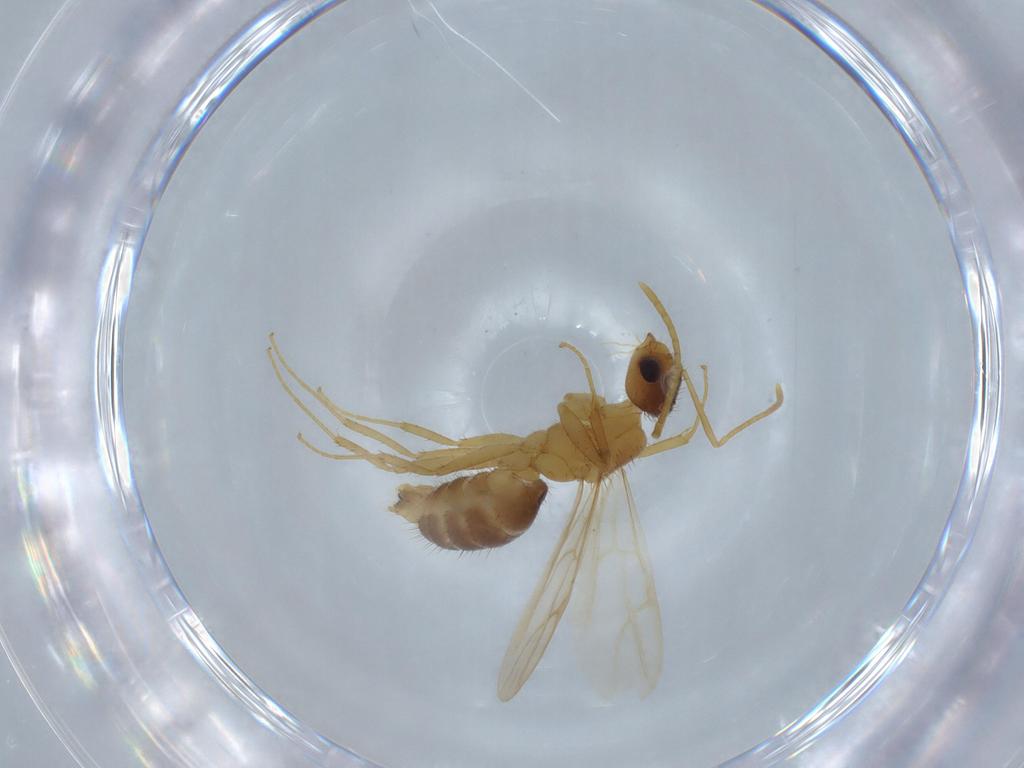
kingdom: Animalia
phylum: Arthropoda
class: Insecta
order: Hymenoptera
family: Formicidae
